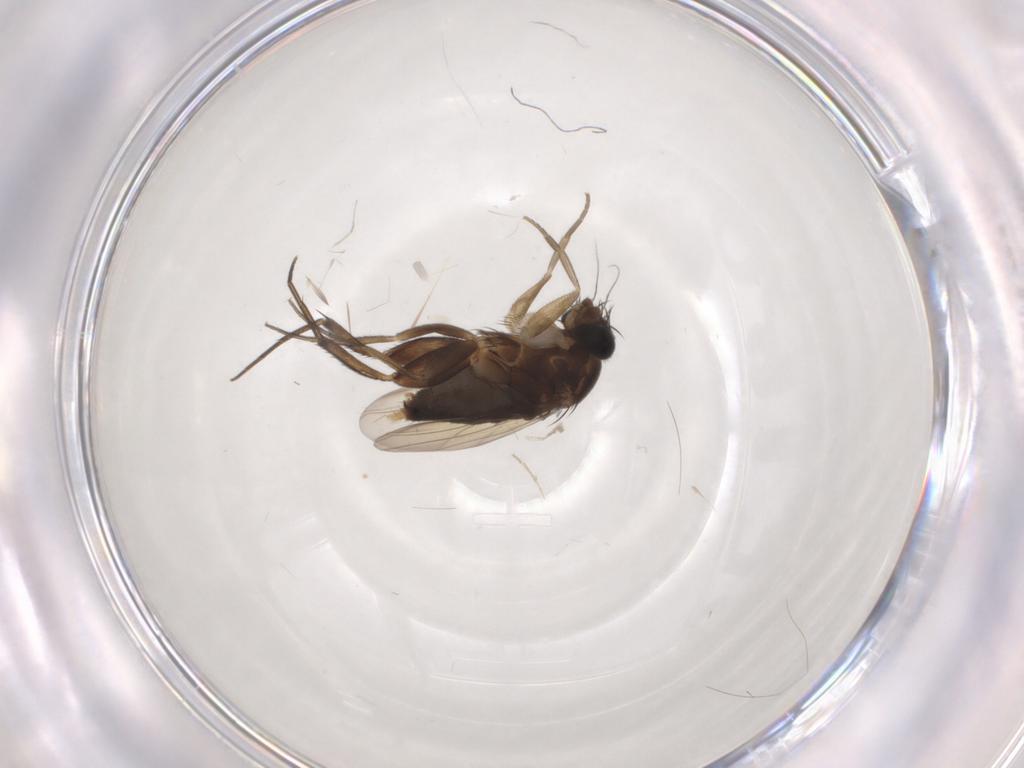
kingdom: Animalia
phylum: Arthropoda
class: Insecta
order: Diptera
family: Phoridae
